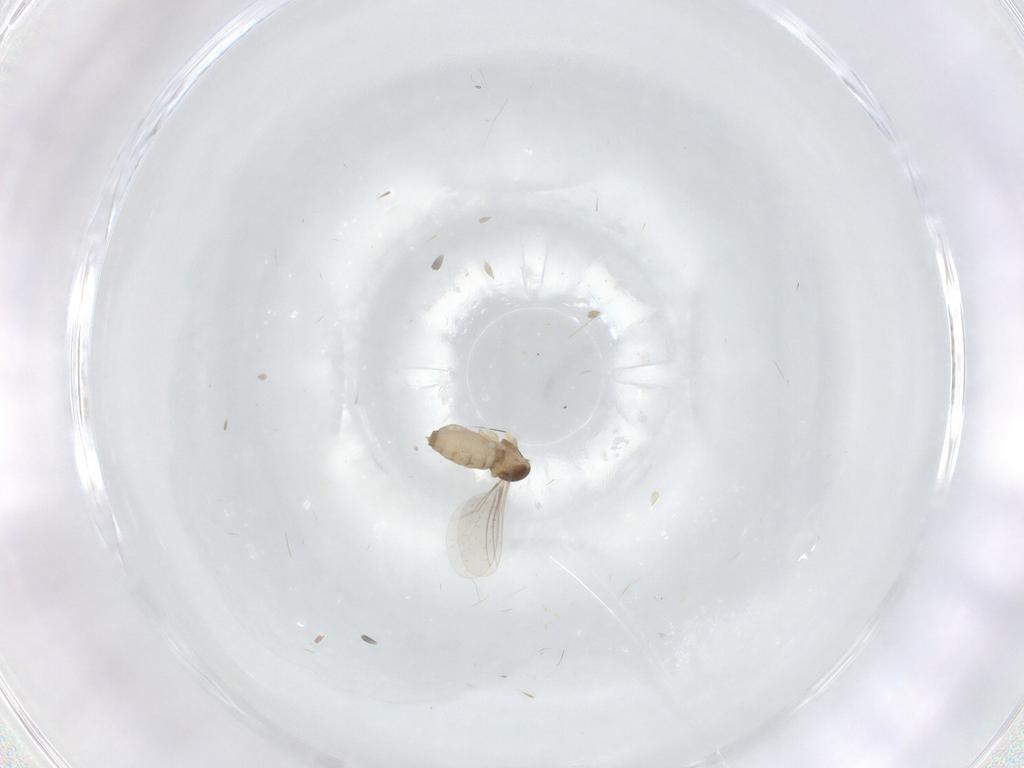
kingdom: Animalia
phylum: Arthropoda
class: Insecta
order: Diptera
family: Cecidomyiidae
